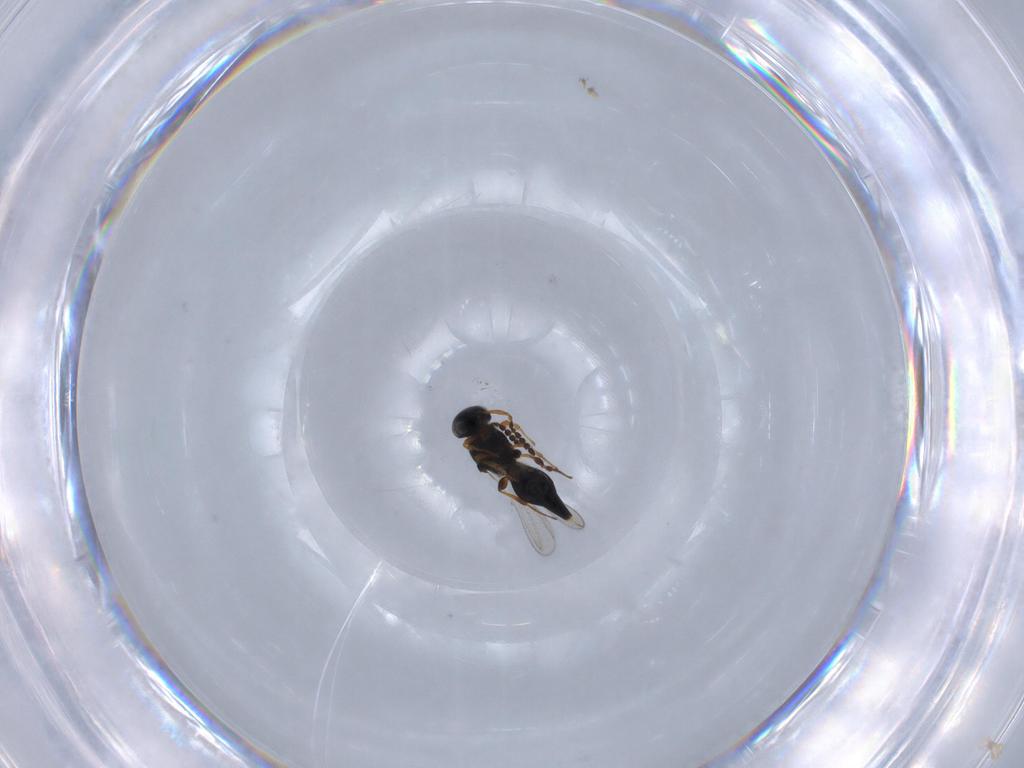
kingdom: Animalia
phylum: Arthropoda
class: Insecta
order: Hymenoptera
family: Platygastridae
